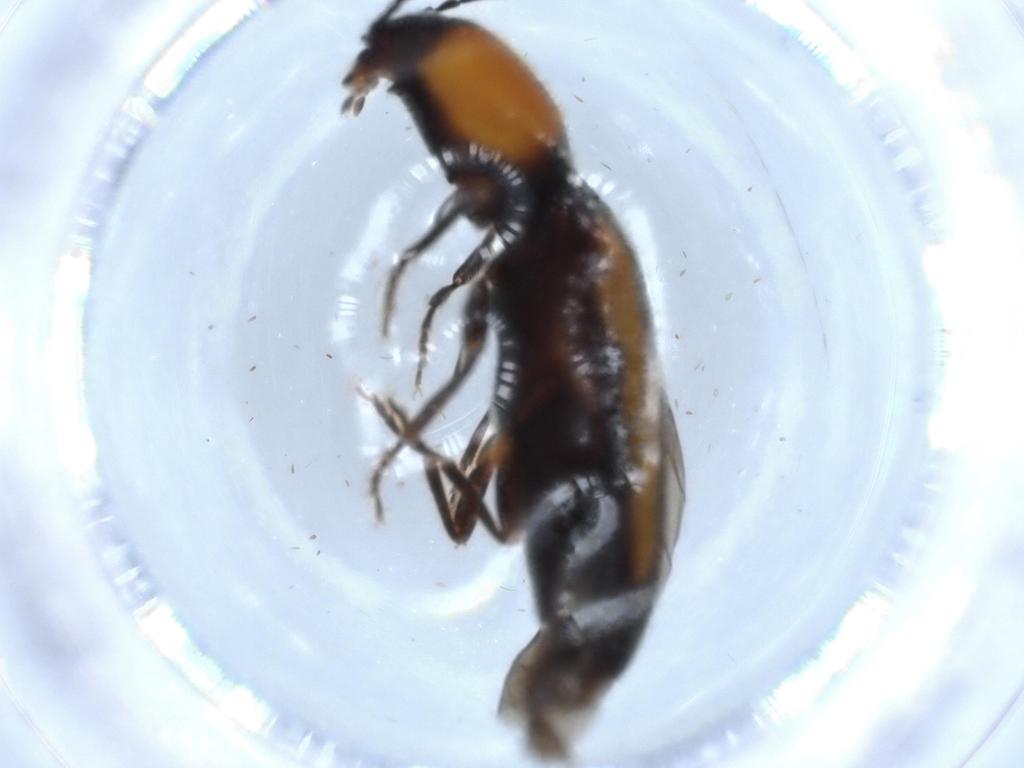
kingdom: Animalia
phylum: Arthropoda
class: Insecta
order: Coleoptera
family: Elateridae
